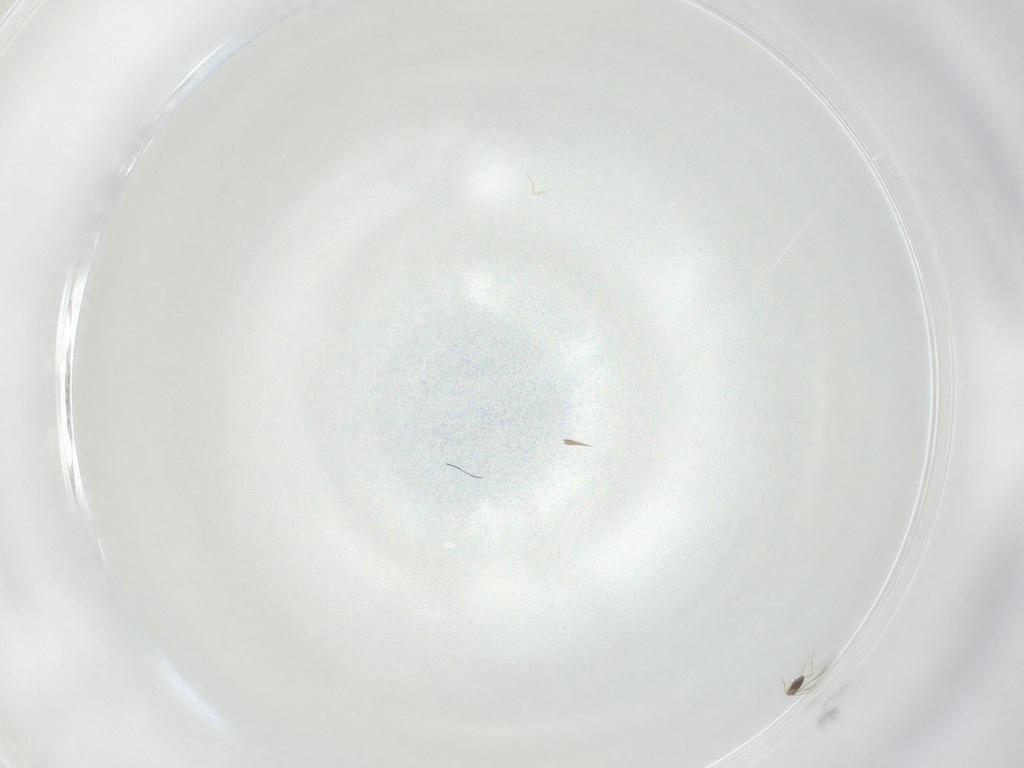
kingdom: Animalia
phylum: Arthropoda
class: Insecta
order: Hymenoptera
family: Mymaridae
